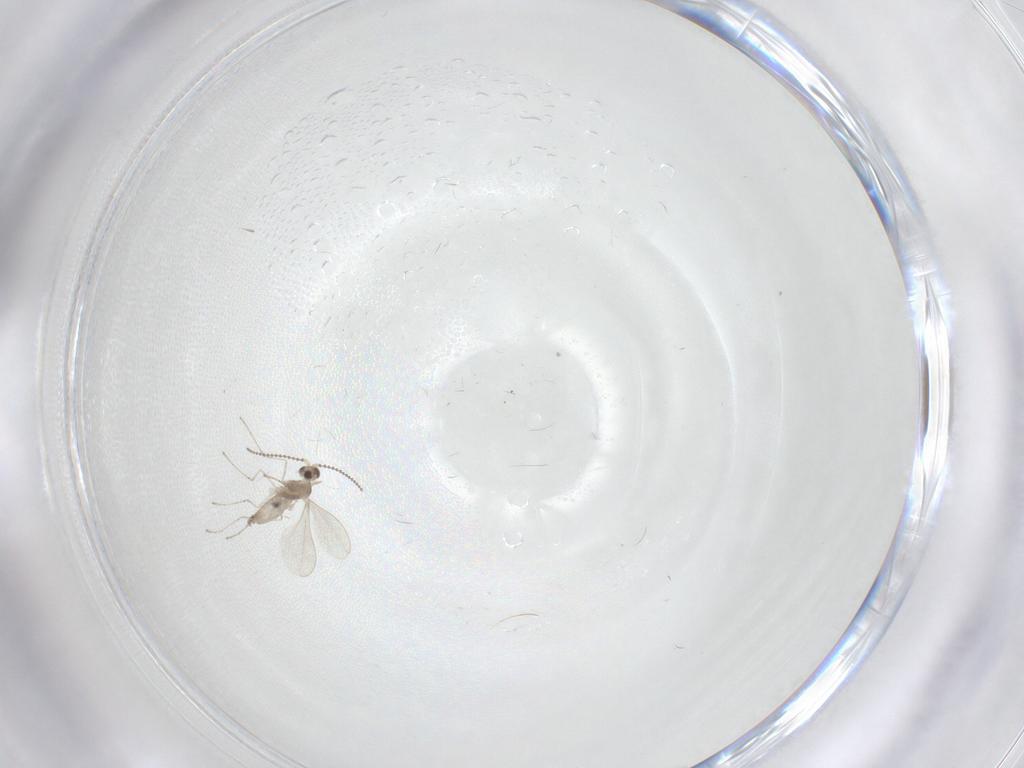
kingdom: Animalia
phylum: Arthropoda
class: Insecta
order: Diptera
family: Cecidomyiidae
